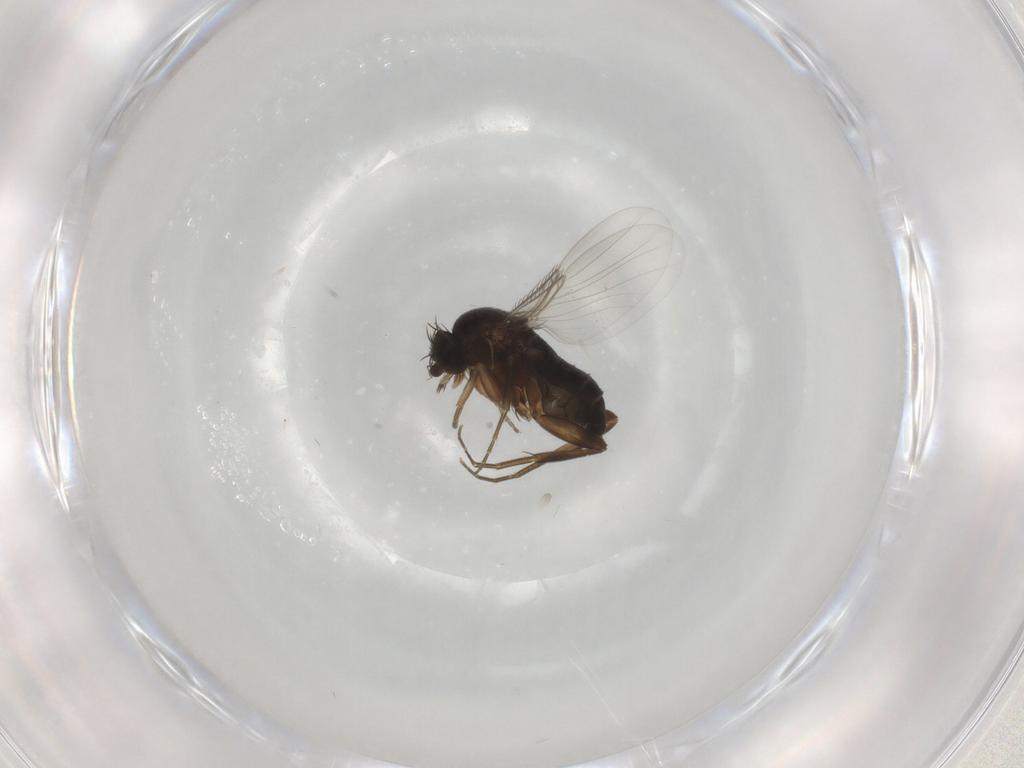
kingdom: Animalia
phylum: Arthropoda
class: Insecta
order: Diptera
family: Phoridae
